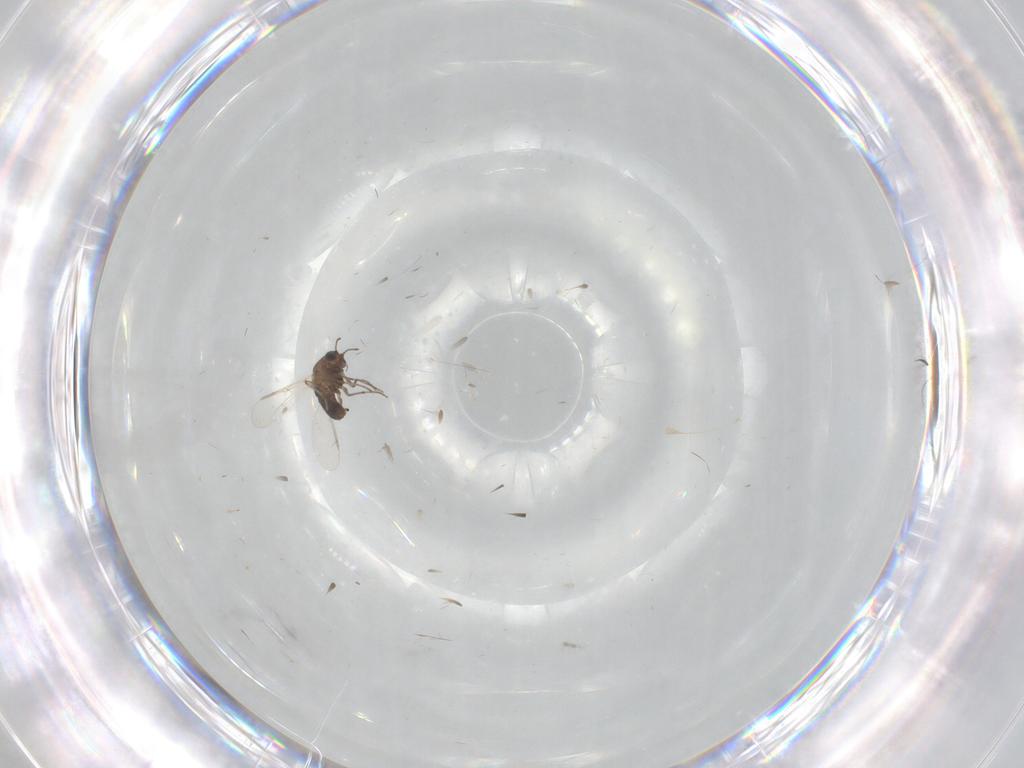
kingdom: Animalia
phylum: Arthropoda
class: Insecta
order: Diptera
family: Chironomidae
